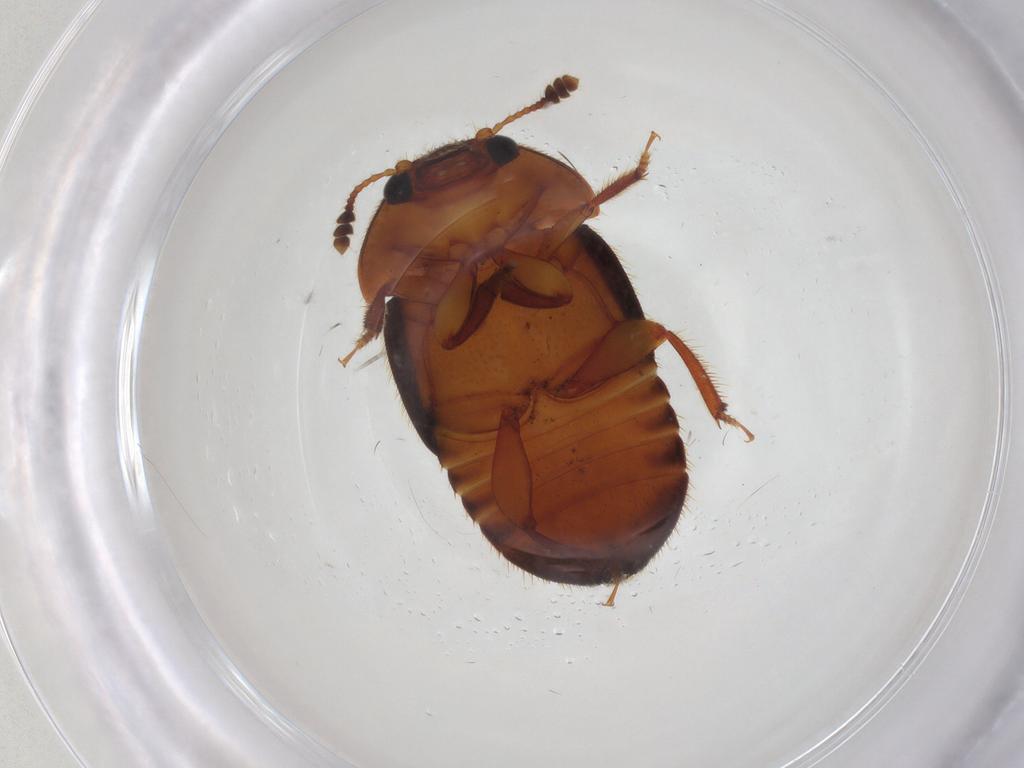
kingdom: Animalia
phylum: Arthropoda
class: Insecta
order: Coleoptera
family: Nitidulidae
